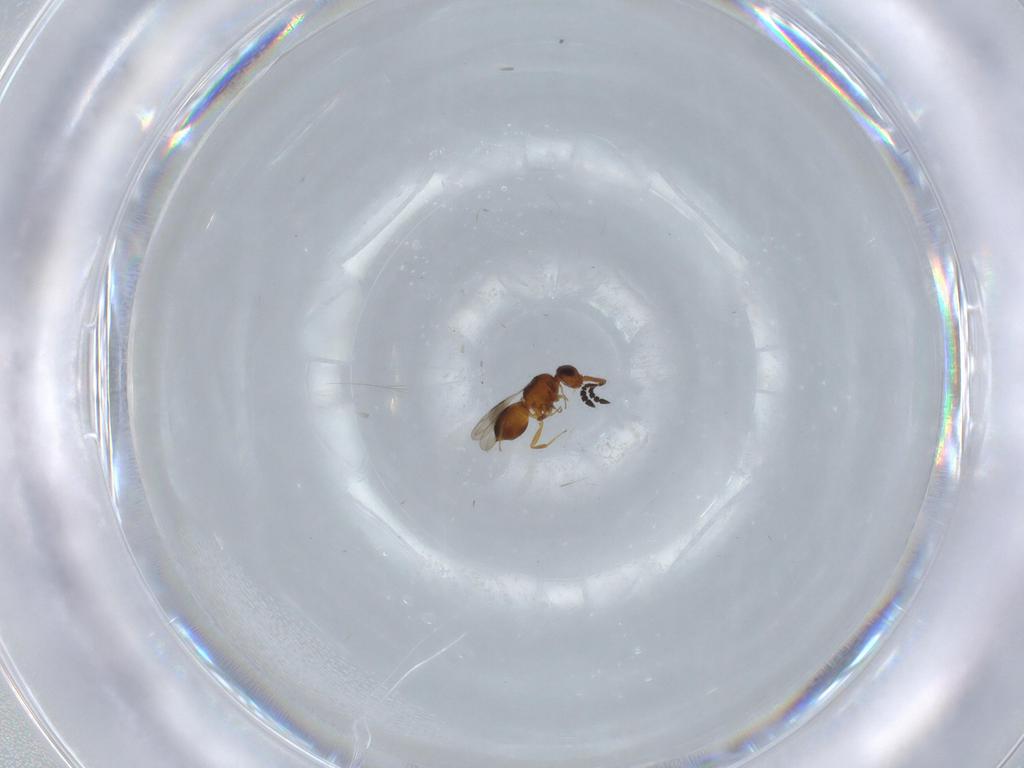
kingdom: Animalia
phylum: Arthropoda
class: Insecta
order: Hymenoptera
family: Ceraphronidae
